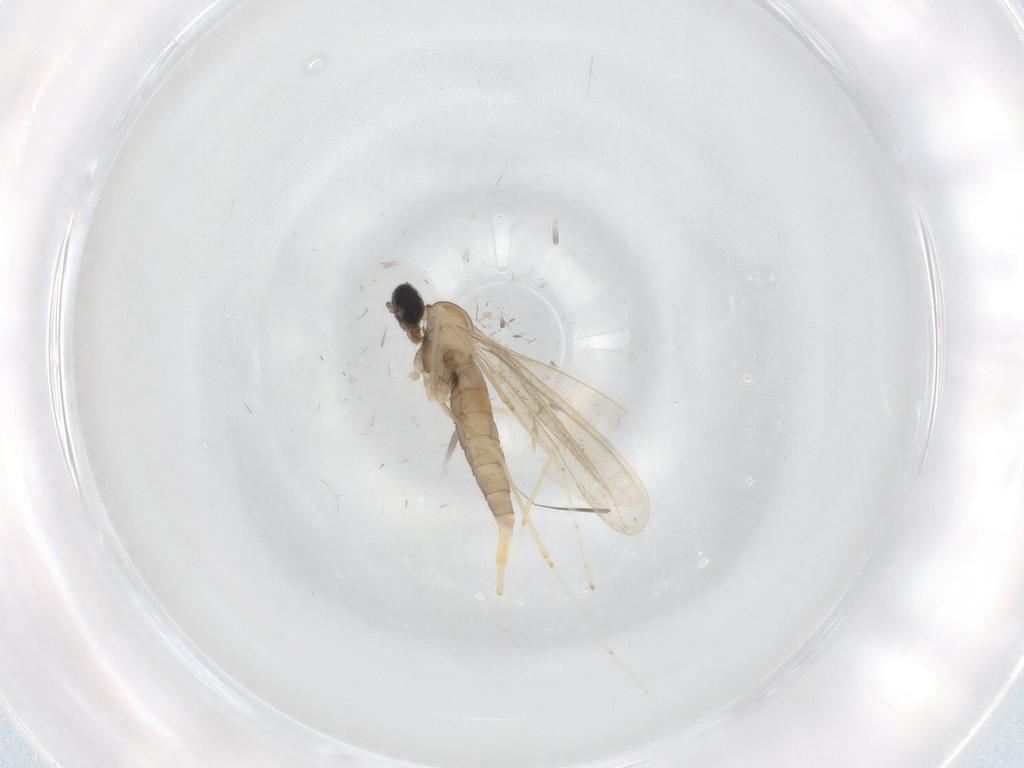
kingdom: Animalia
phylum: Arthropoda
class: Insecta
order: Diptera
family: Cecidomyiidae
